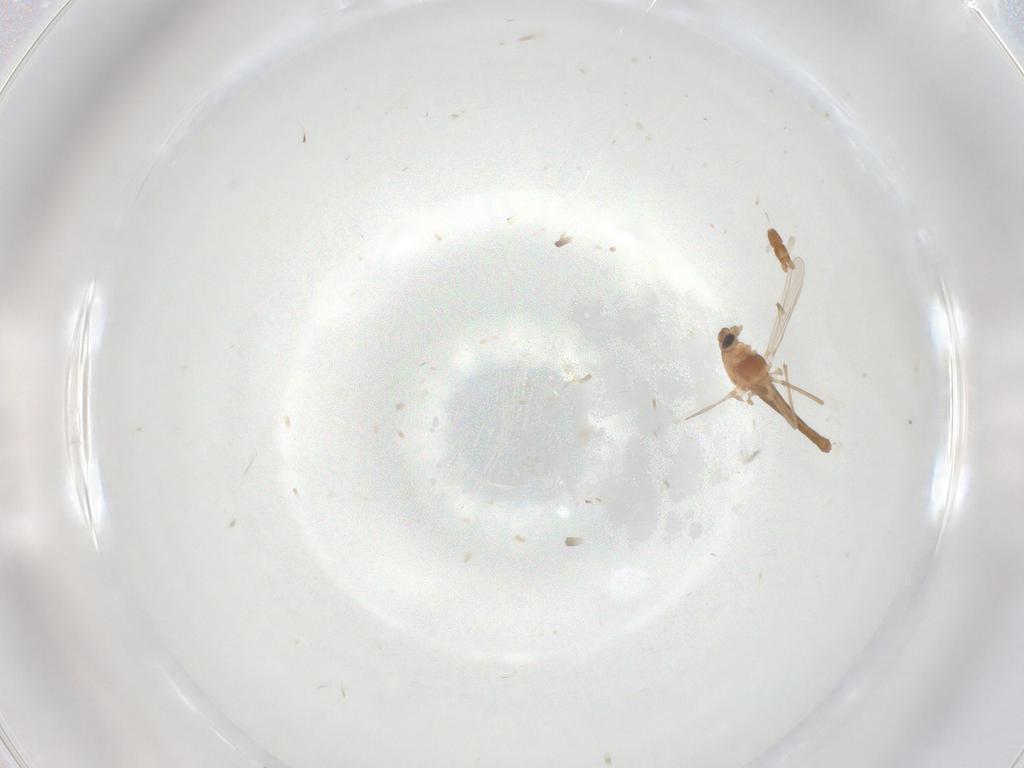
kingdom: Animalia
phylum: Arthropoda
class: Insecta
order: Diptera
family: Chironomidae
